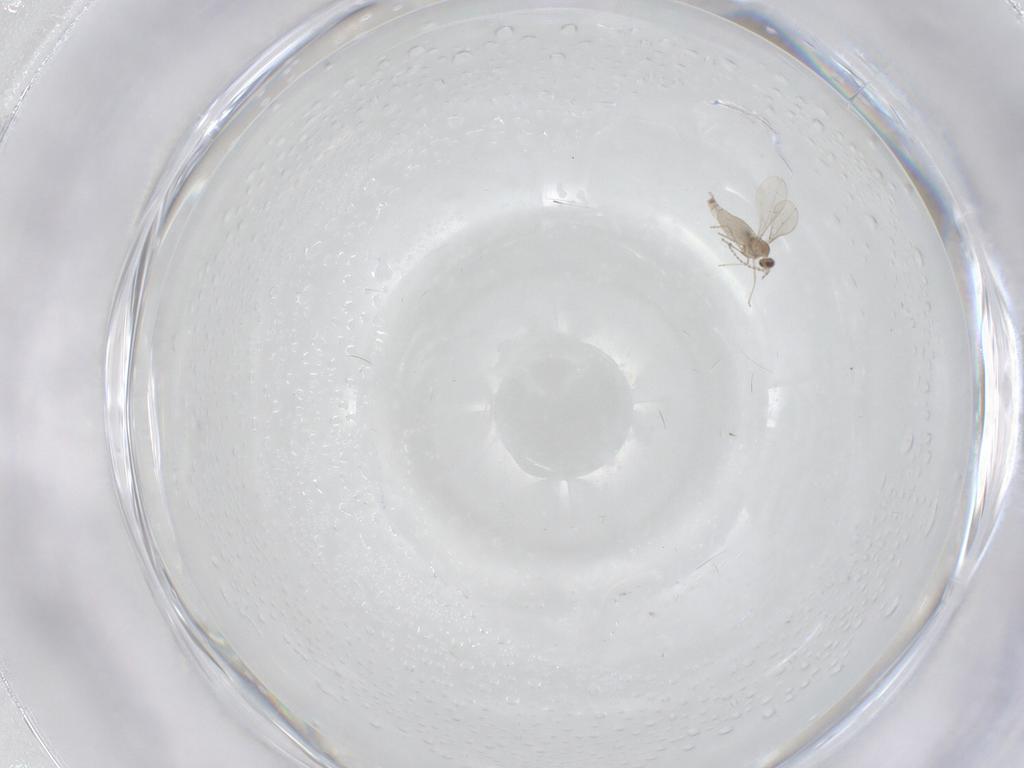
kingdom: Animalia
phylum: Arthropoda
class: Insecta
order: Diptera
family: Cecidomyiidae
